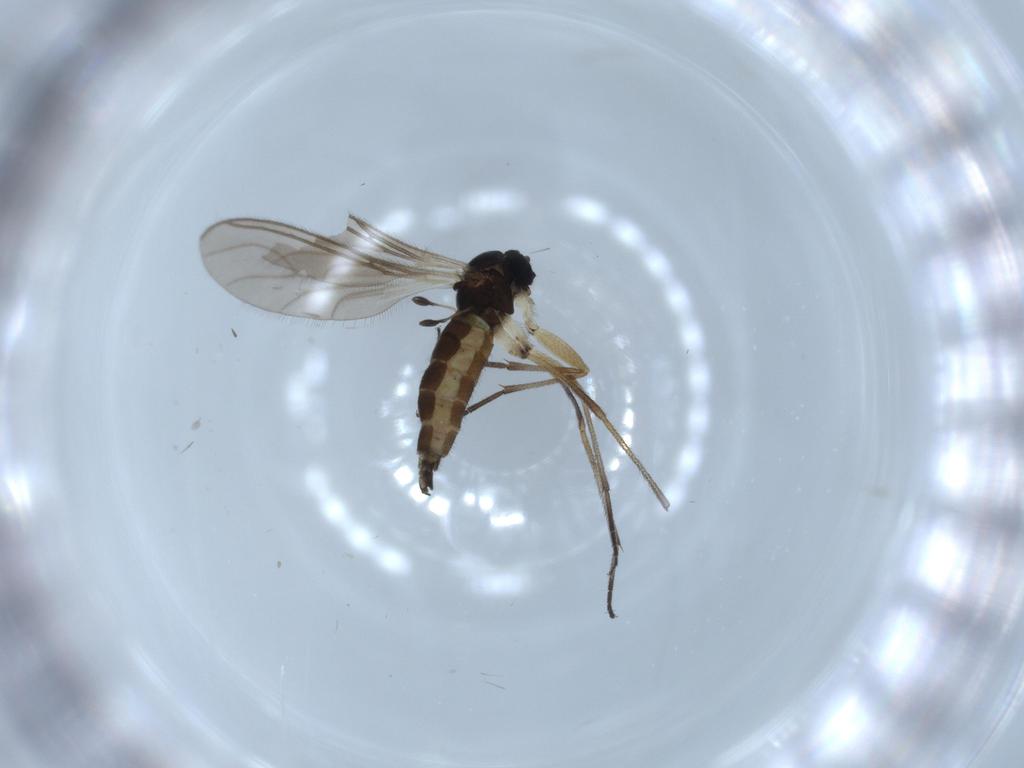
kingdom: Animalia
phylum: Arthropoda
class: Insecta
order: Diptera
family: Sciaridae
